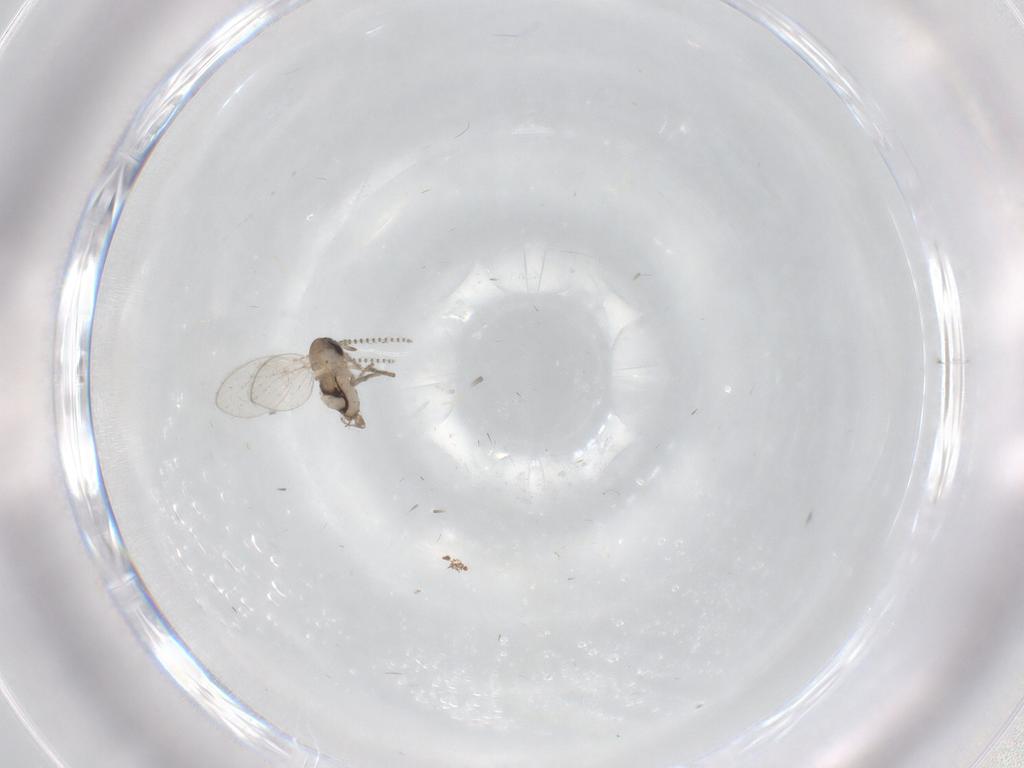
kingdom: Animalia
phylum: Arthropoda
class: Insecta
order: Diptera
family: Psychodidae
